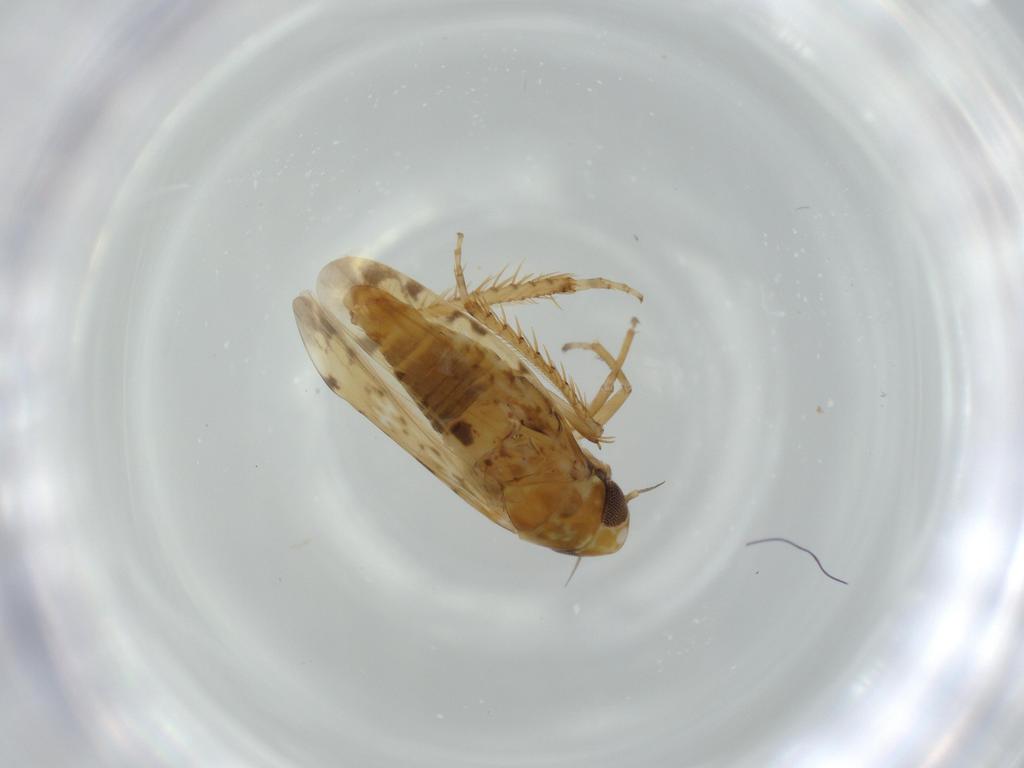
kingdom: Animalia
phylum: Arthropoda
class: Insecta
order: Hemiptera
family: Cicadellidae
